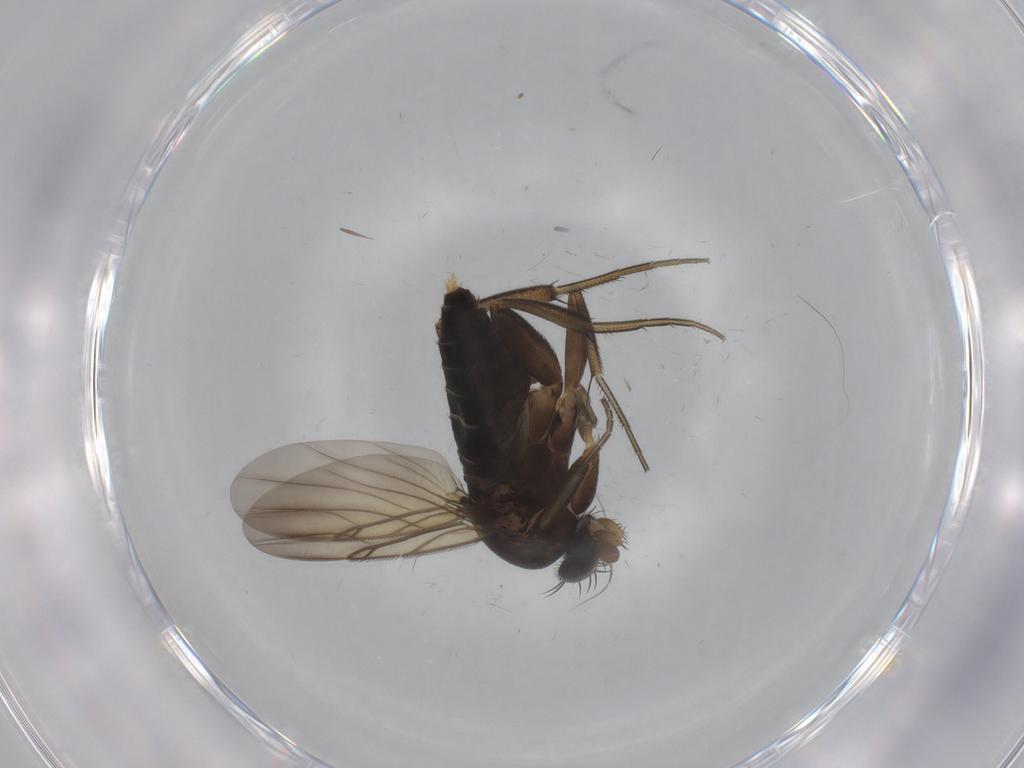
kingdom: Animalia
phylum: Arthropoda
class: Insecta
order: Diptera
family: Phoridae
